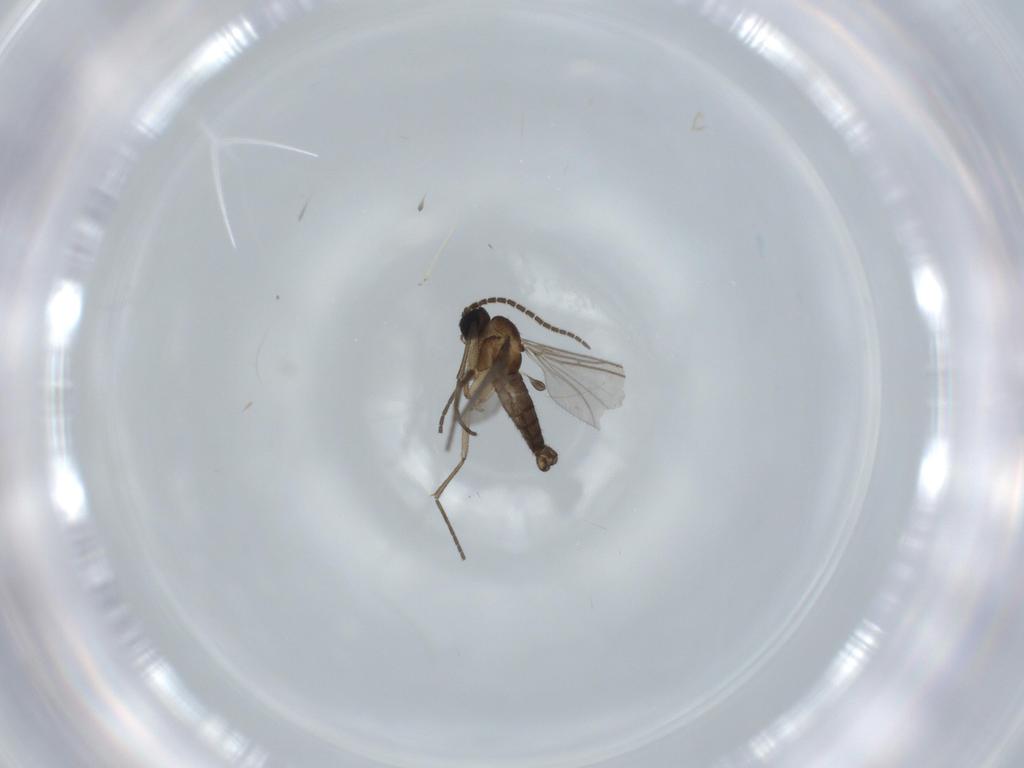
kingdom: Animalia
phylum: Arthropoda
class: Insecta
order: Diptera
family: Sciaridae
